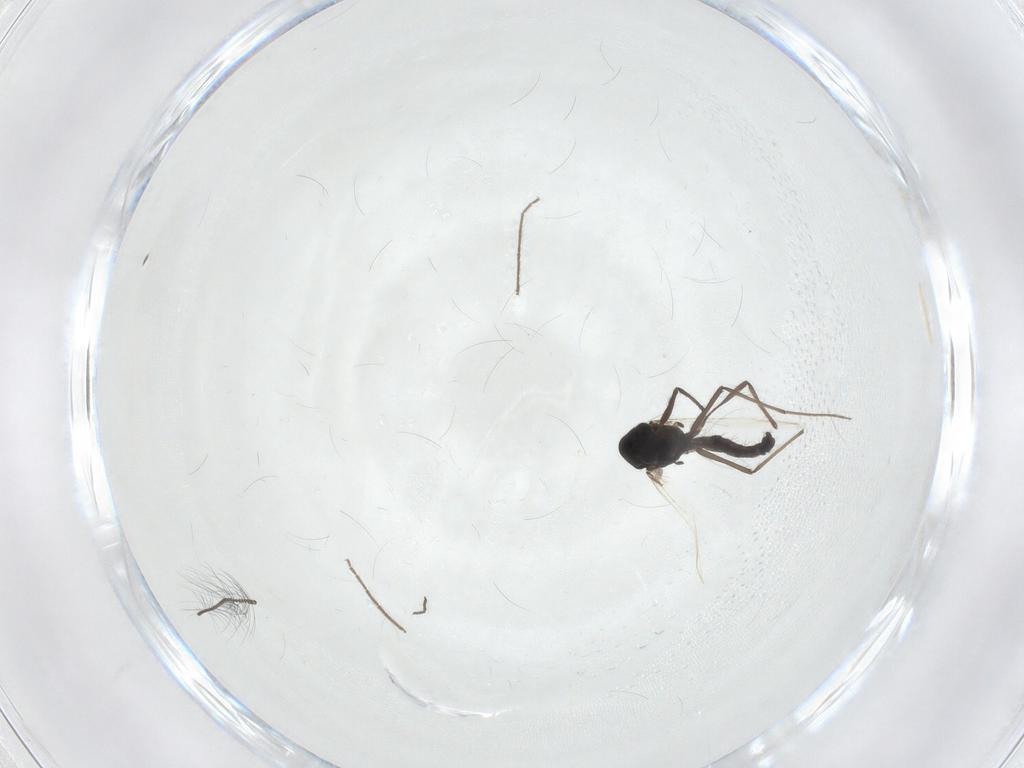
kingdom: Animalia
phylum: Arthropoda
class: Insecta
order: Diptera
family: Chironomidae
